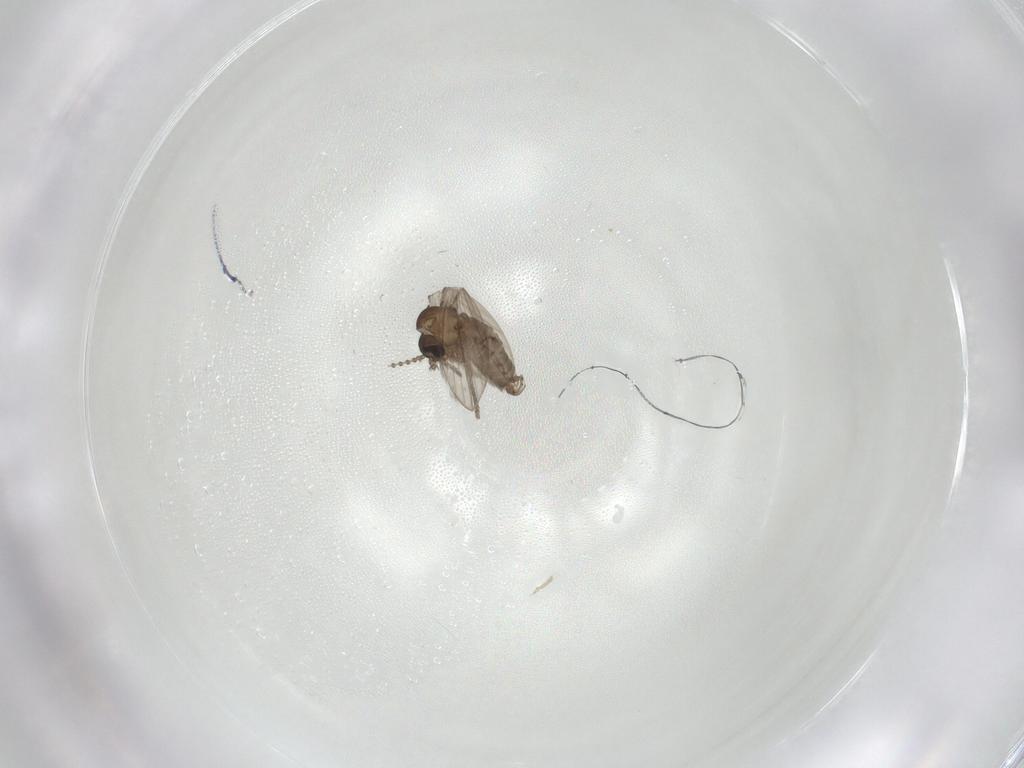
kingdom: Animalia
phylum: Arthropoda
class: Insecta
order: Diptera
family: Psychodidae
